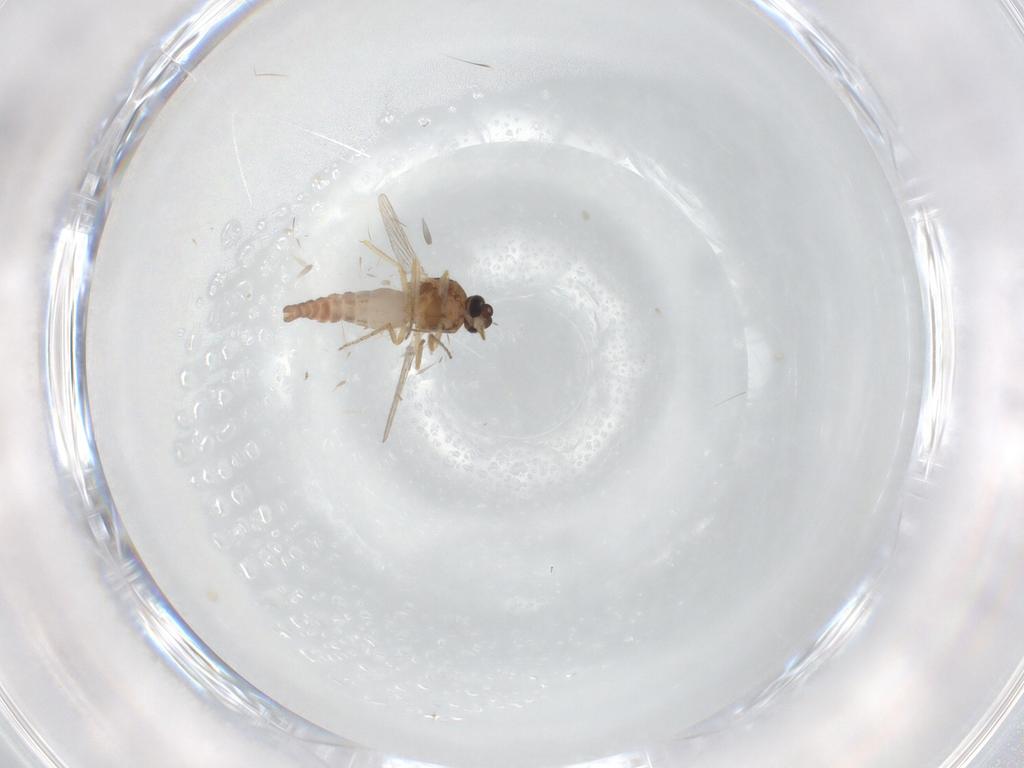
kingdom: Animalia
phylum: Arthropoda
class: Insecta
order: Diptera
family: Ceratopogonidae
